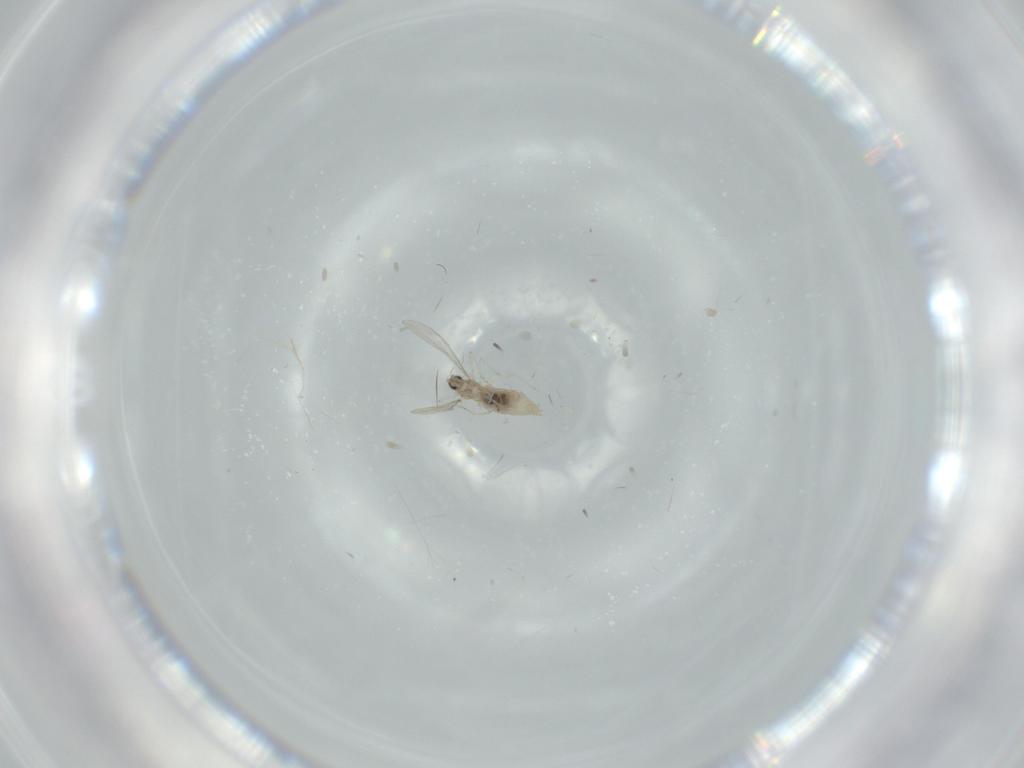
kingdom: Animalia
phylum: Arthropoda
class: Insecta
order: Diptera
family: Cecidomyiidae
